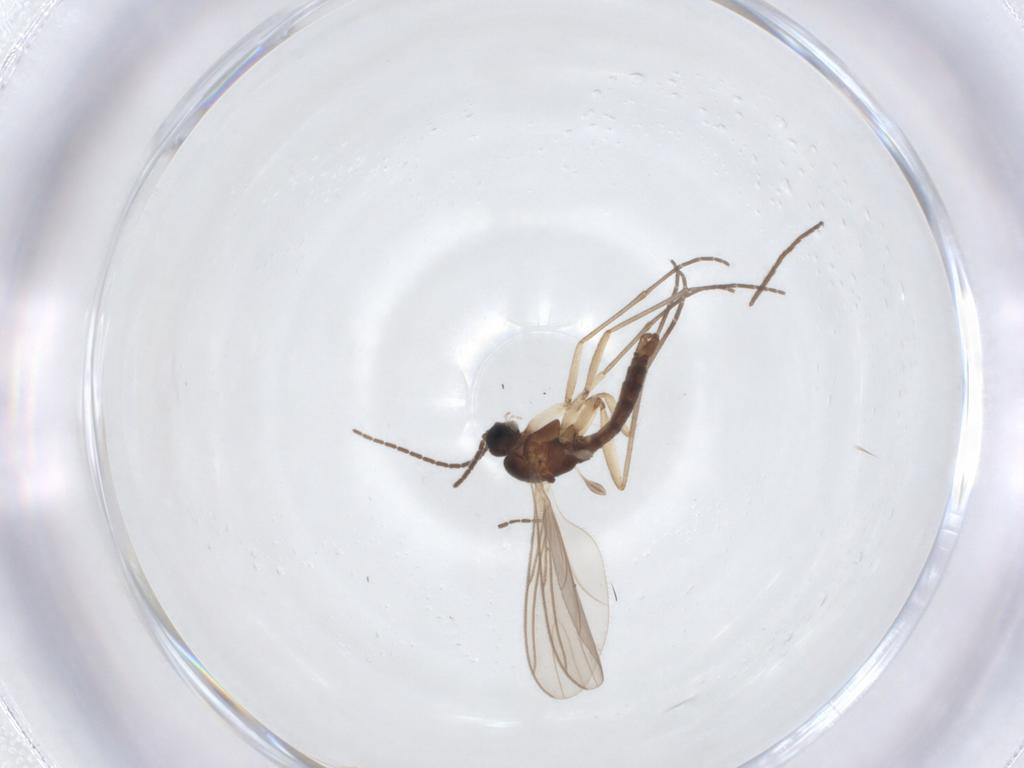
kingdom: Animalia
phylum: Arthropoda
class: Insecta
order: Diptera
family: Sciaridae
